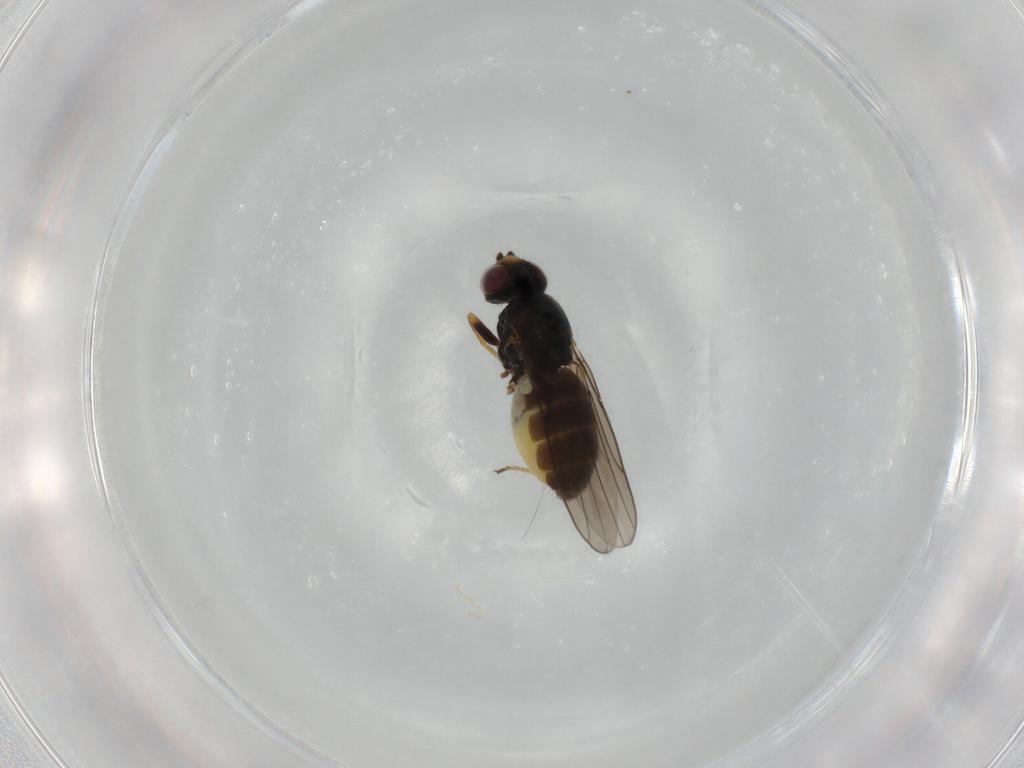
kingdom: Animalia
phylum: Arthropoda
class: Insecta
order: Diptera
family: Chloropidae
